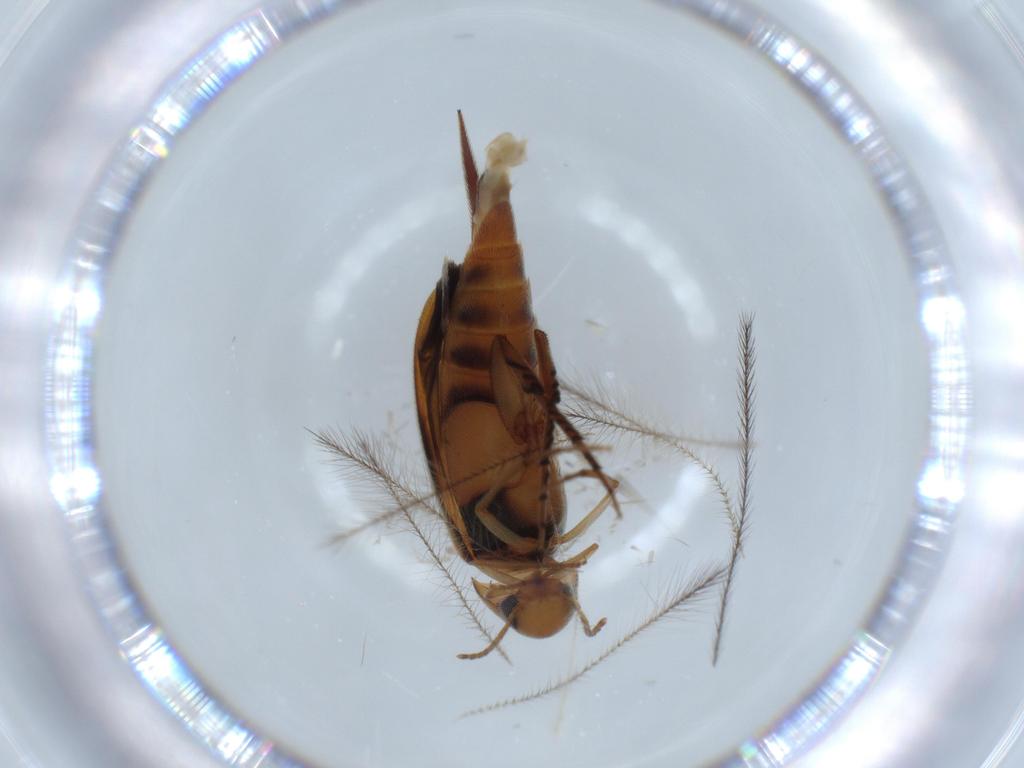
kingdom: Animalia
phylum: Arthropoda
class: Insecta
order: Coleoptera
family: Mordellidae
